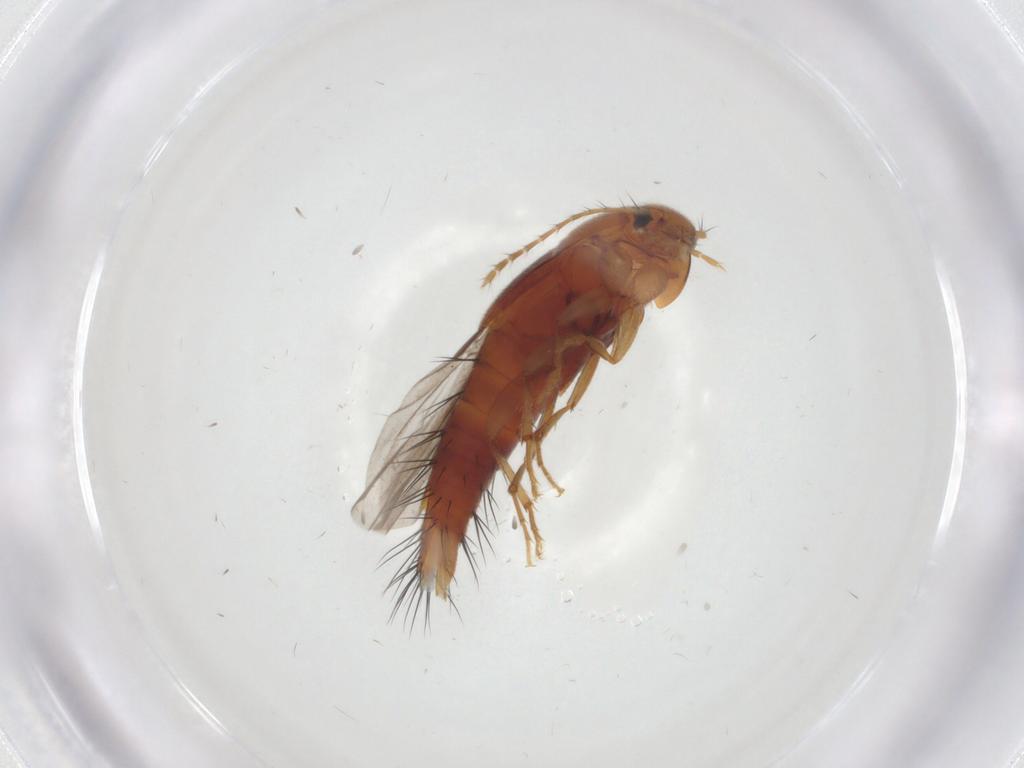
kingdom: Animalia
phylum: Arthropoda
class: Insecta
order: Coleoptera
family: Staphylinidae
